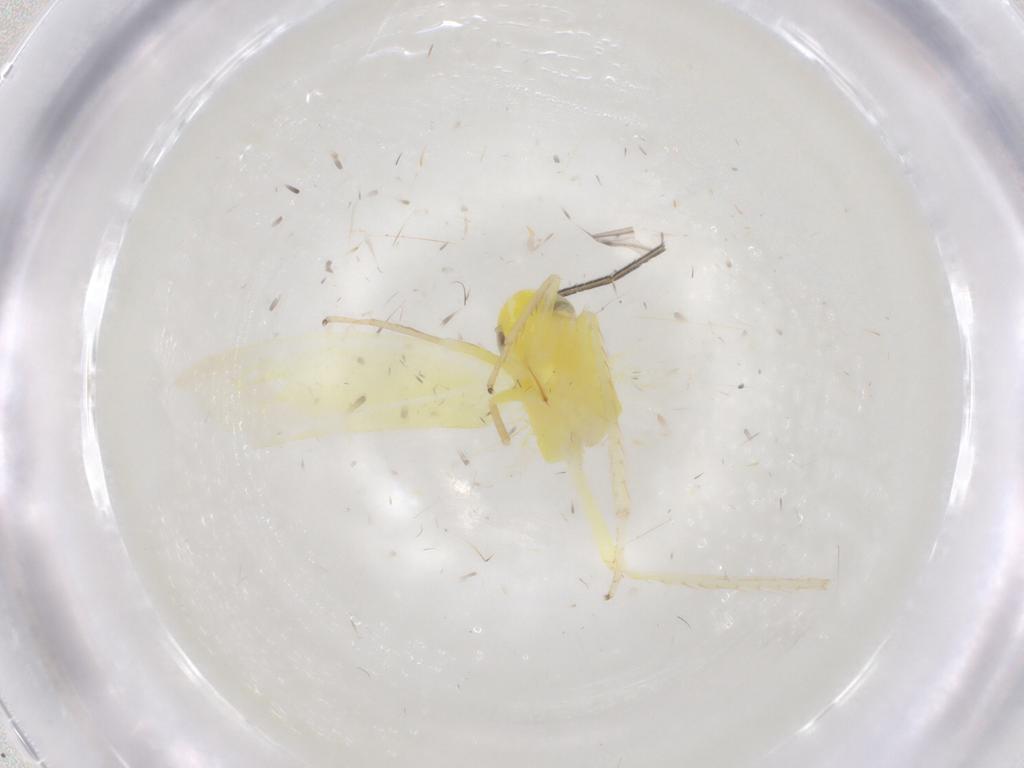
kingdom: Animalia
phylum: Arthropoda
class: Insecta
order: Hemiptera
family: Cicadellidae
